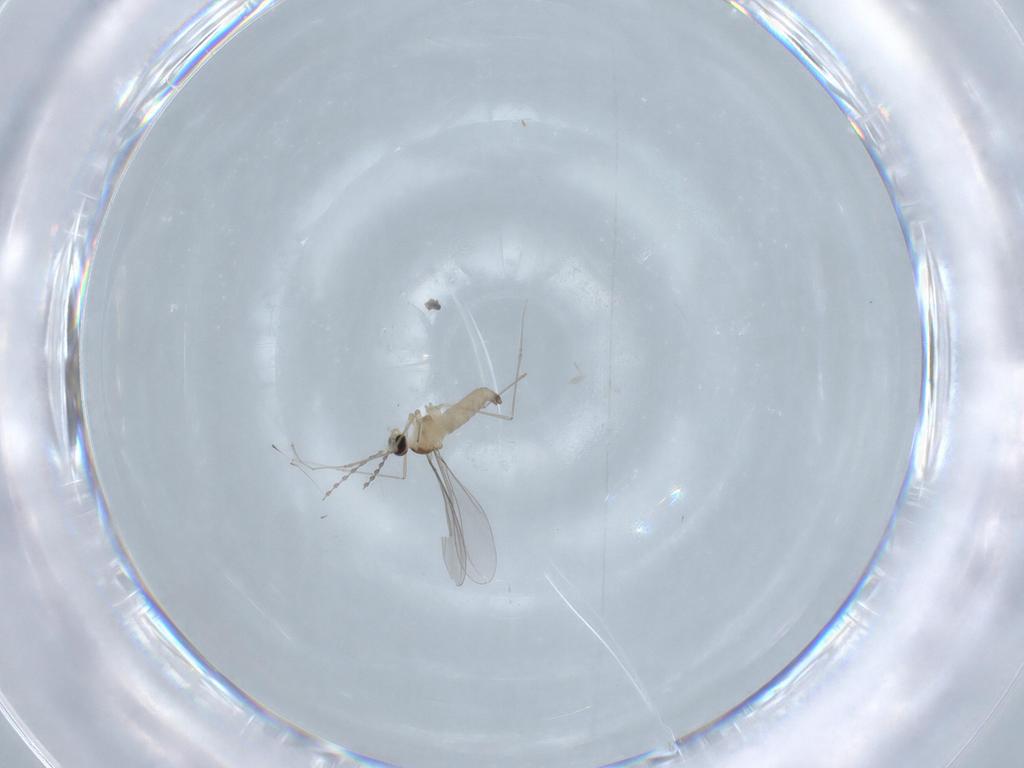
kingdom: Animalia
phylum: Arthropoda
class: Insecta
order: Diptera
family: Cecidomyiidae
